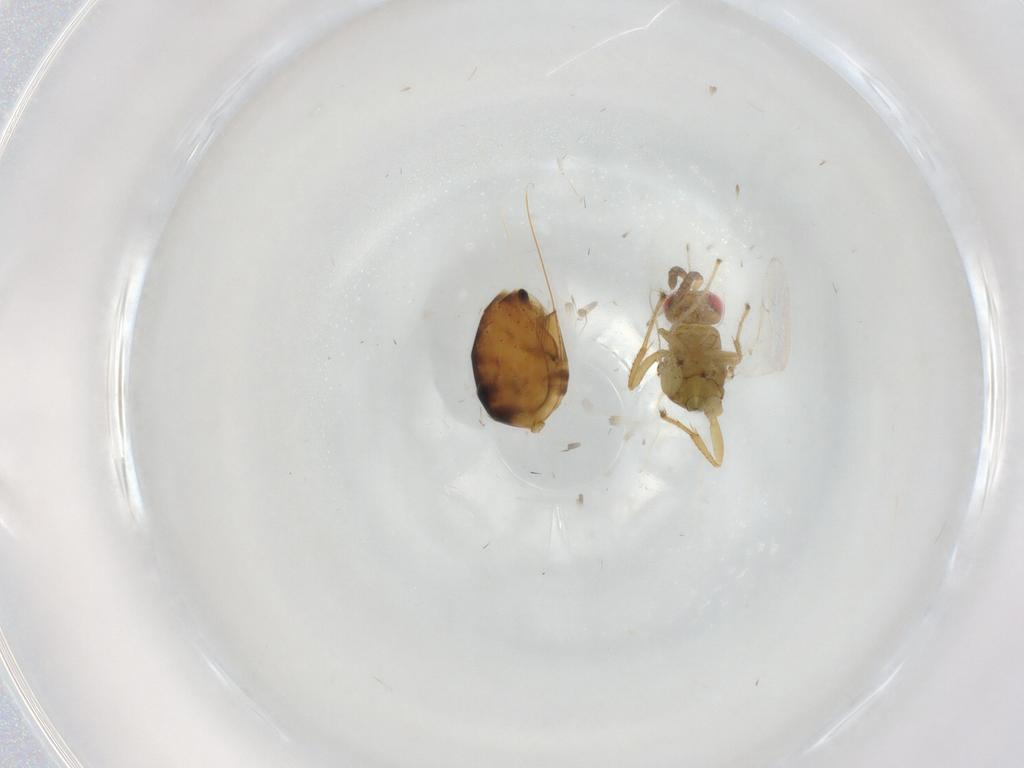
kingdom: Animalia
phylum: Arthropoda
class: Insecta
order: Hymenoptera
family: Agaonidae
